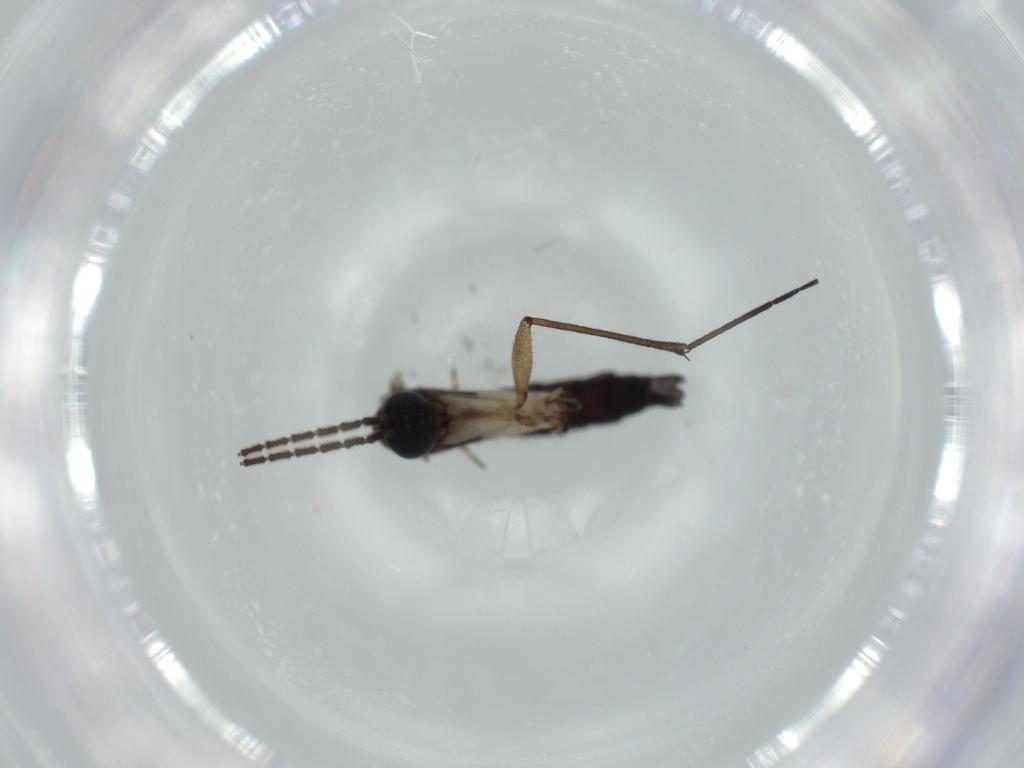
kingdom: Animalia
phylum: Arthropoda
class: Insecta
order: Diptera
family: Sciaridae
